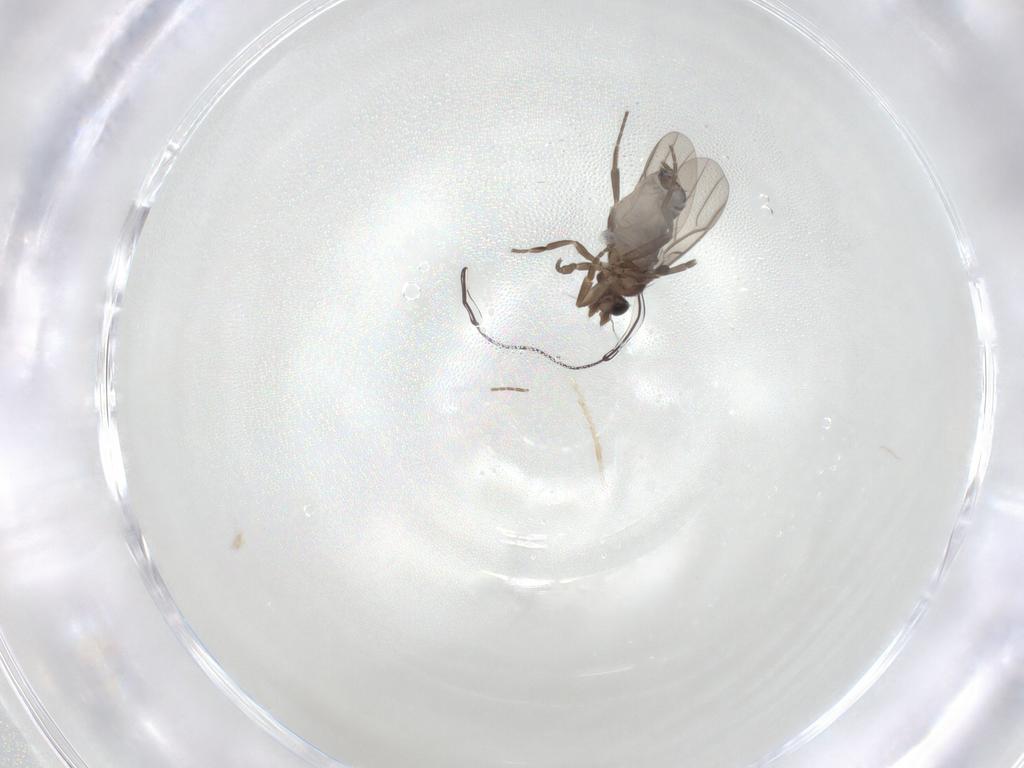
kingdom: Animalia
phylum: Arthropoda
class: Insecta
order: Diptera
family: Phoridae
